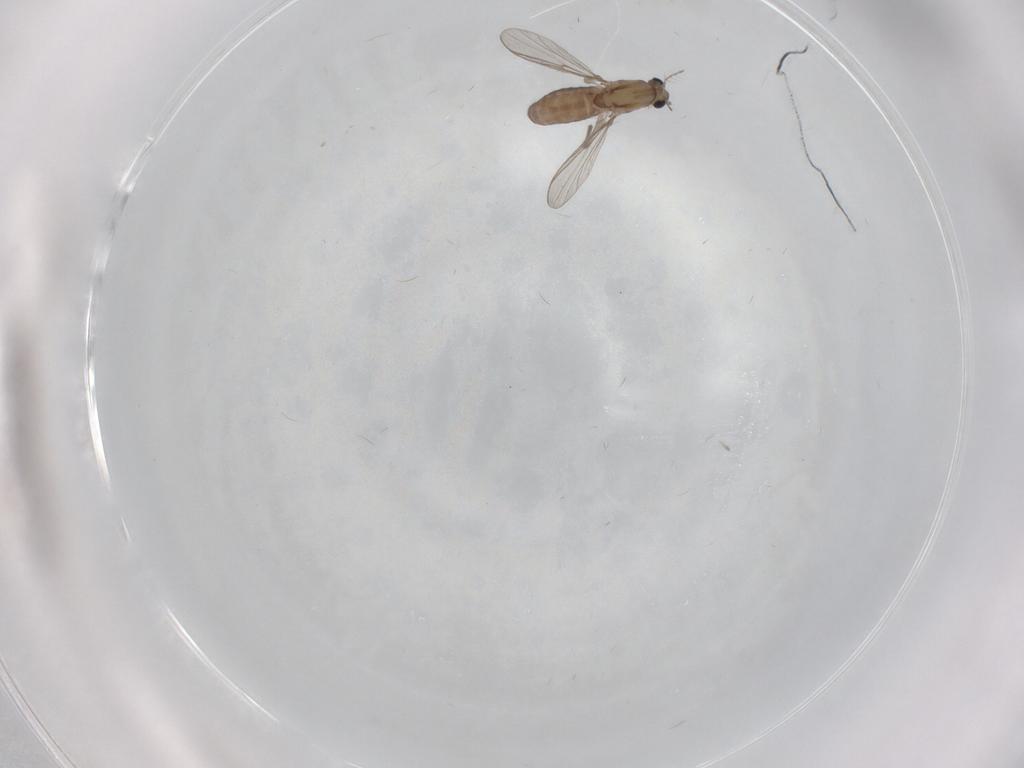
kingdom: Animalia
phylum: Arthropoda
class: Insecta
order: Diptera
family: Chironomidae
